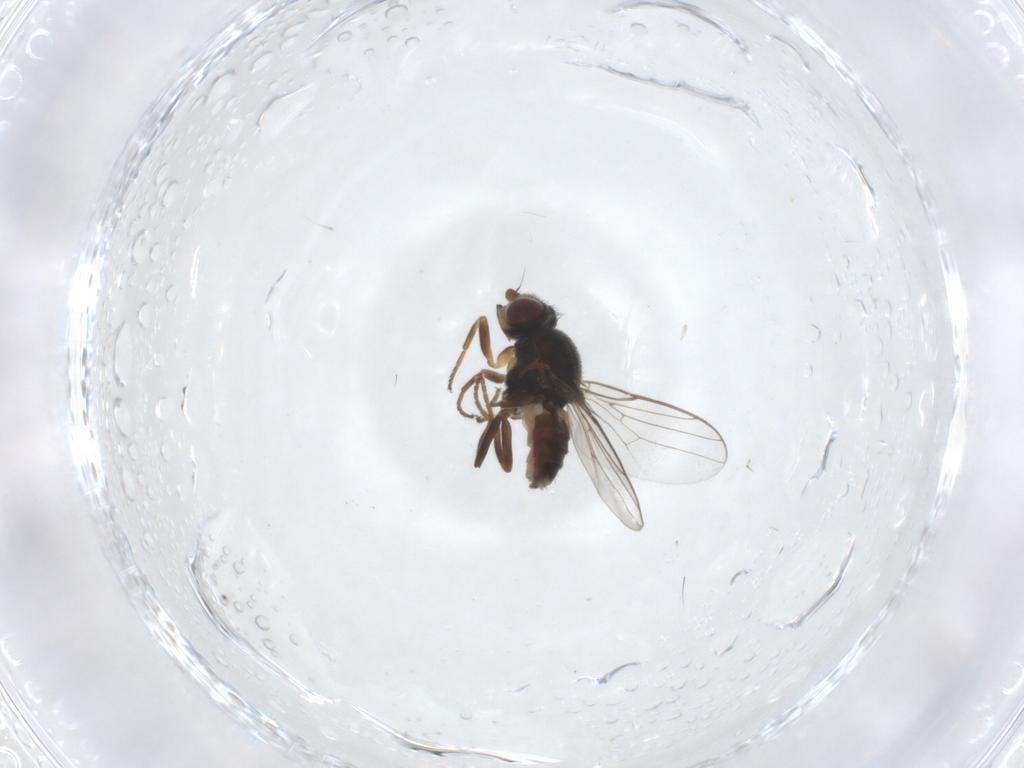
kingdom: Animalia
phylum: Arthropoda
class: Insecta
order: Diptera
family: Chloropidae
